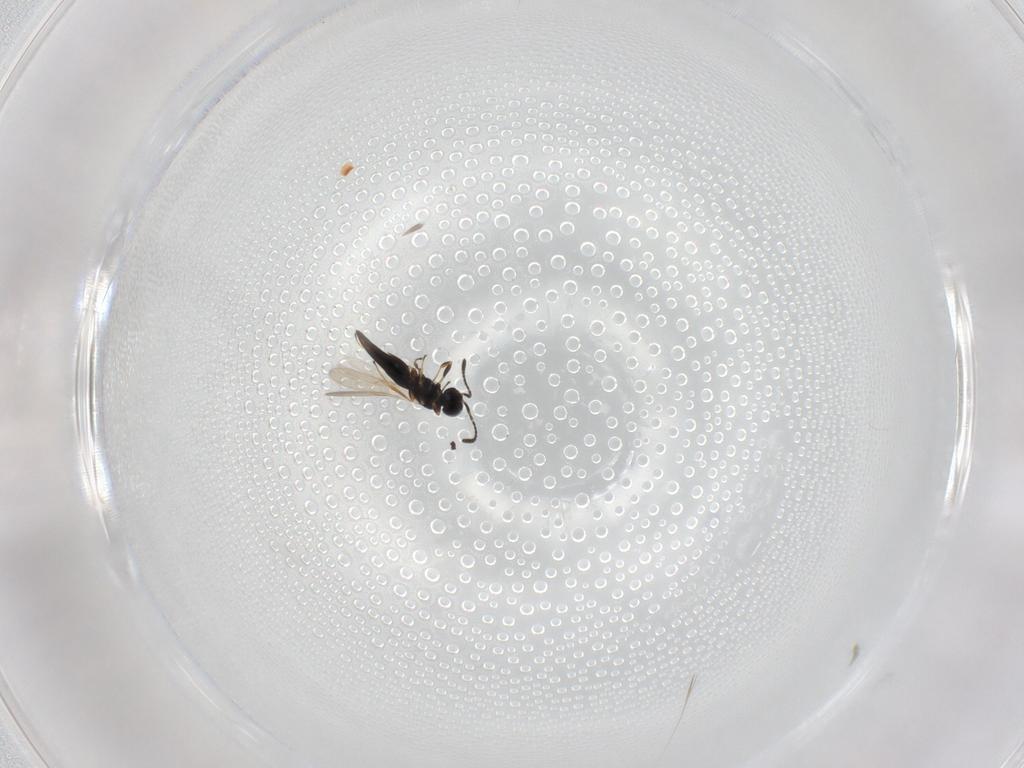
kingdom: Animalia
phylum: Arthropoda
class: Insecta
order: Hymenoptera
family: Scelionidae
